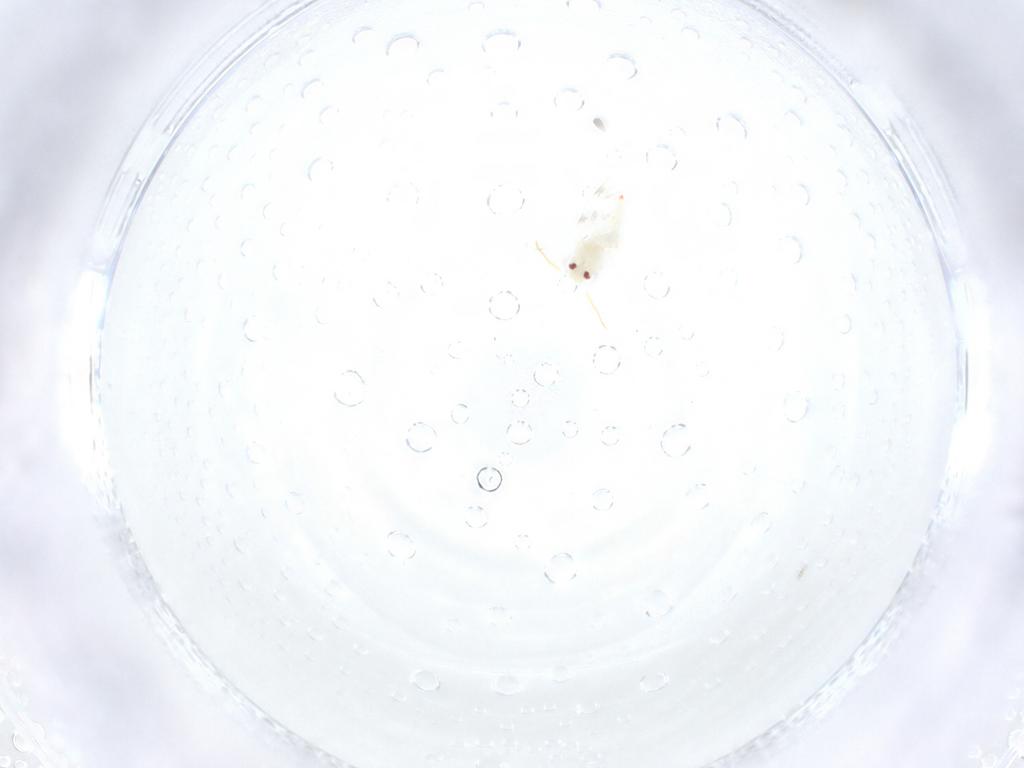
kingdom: Animalia
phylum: Arthropoda
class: Insecta
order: Hemiptera
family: Aleyrodidae
